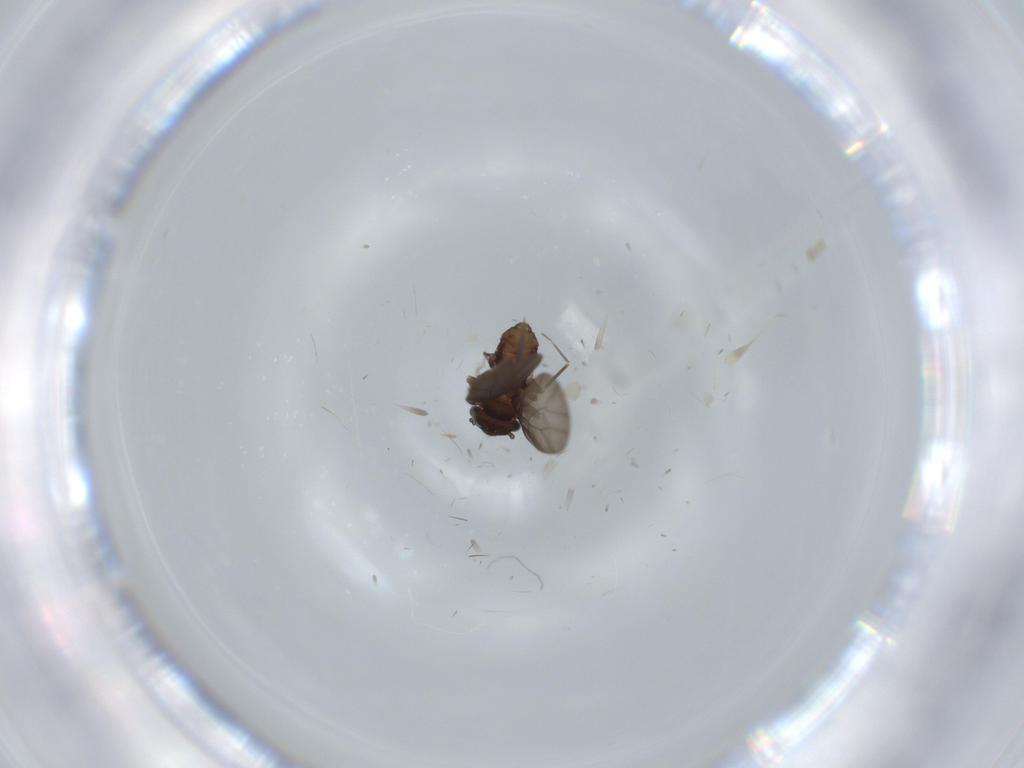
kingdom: Animalia
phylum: Arthropoda
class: Insecta
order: Psocodea
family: Lepidopsocidae
